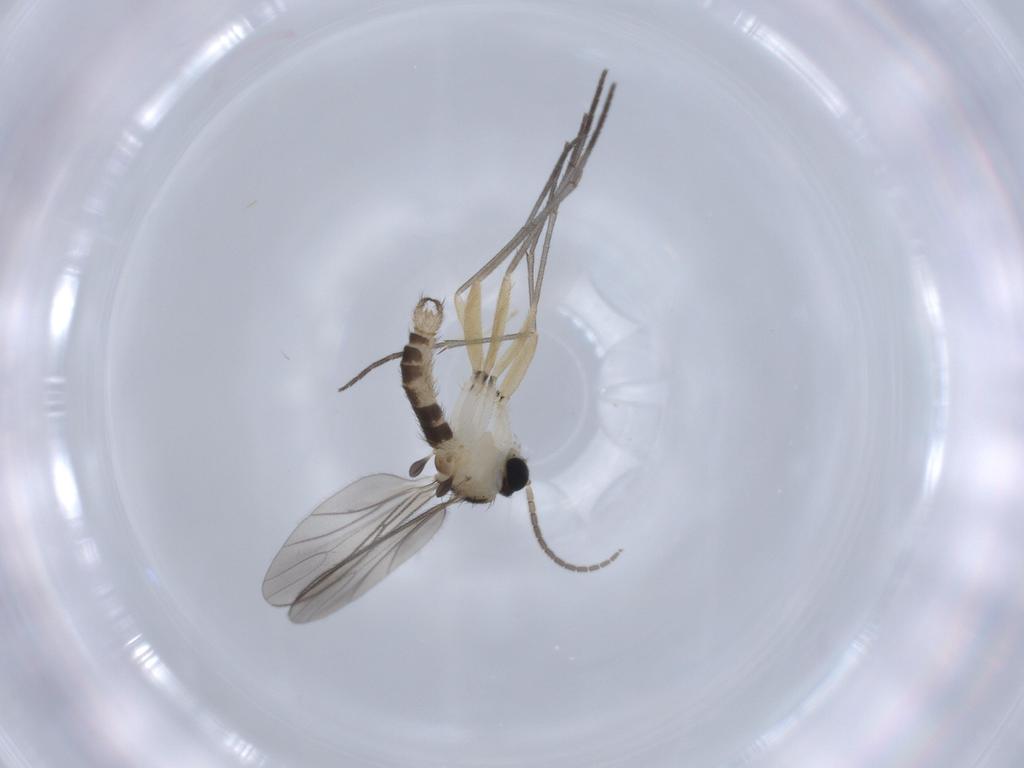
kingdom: Animalia
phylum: Arthropoda
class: Insecta
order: Diptera
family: Sciaridae
